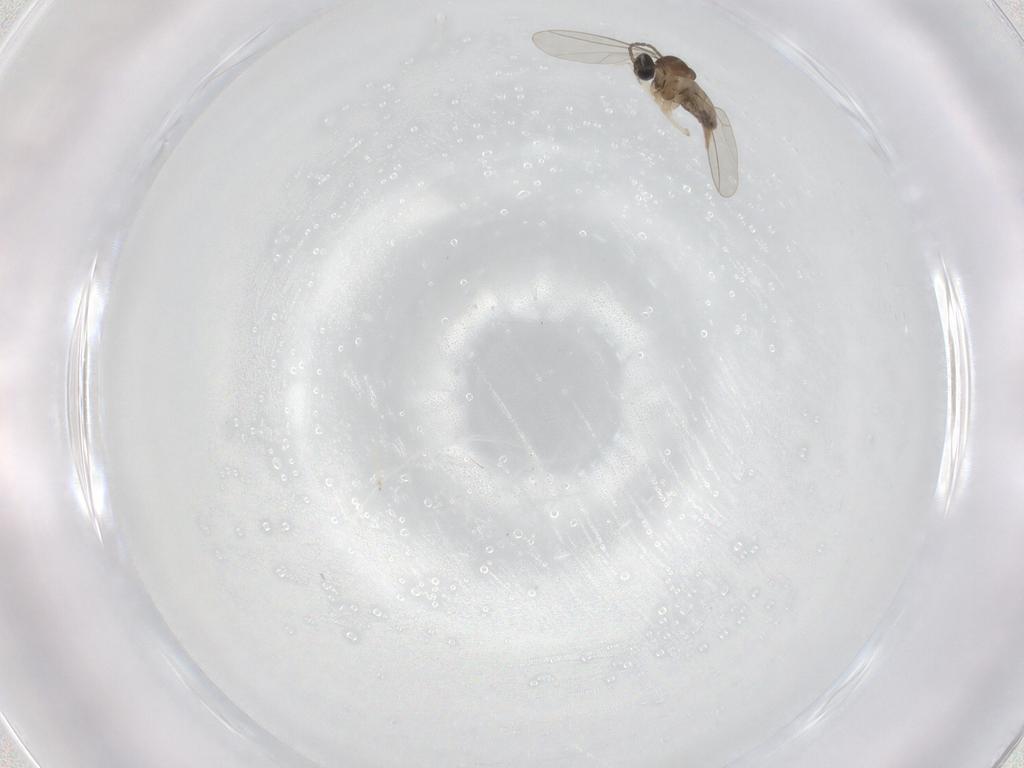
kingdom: Animalia
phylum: Arthropoda
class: Insecta
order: Diptera
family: Cecidomyiidae
